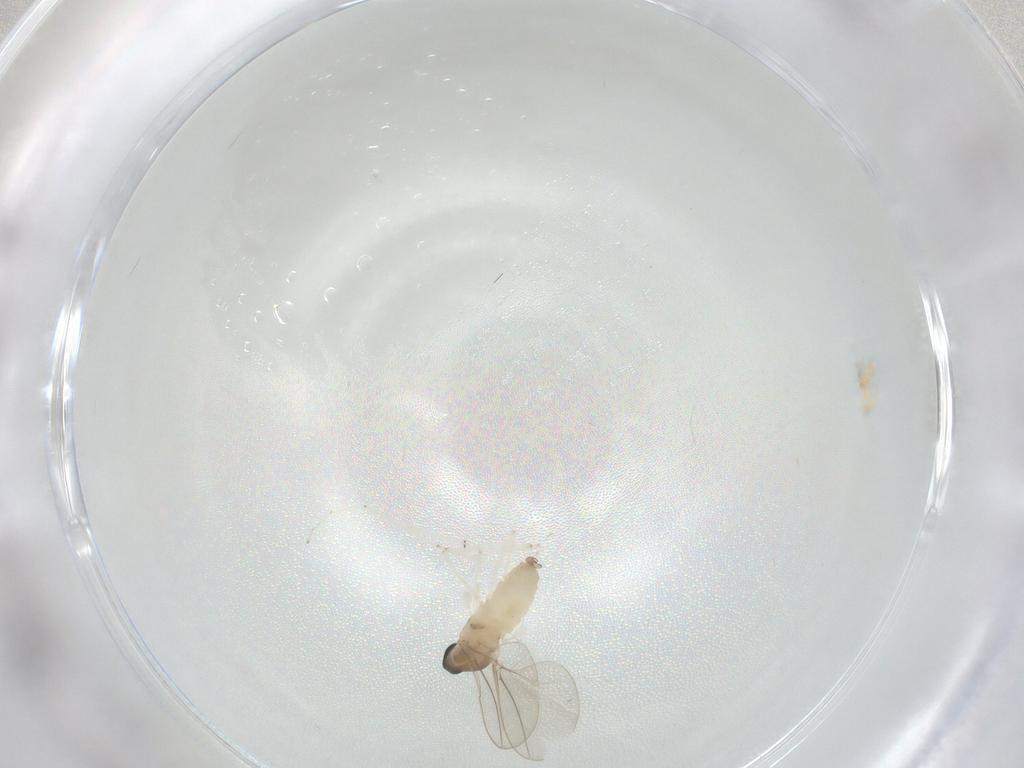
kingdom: Animalia
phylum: Arthropoda
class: Insecta
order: Diptera
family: Cecidomyiidae
